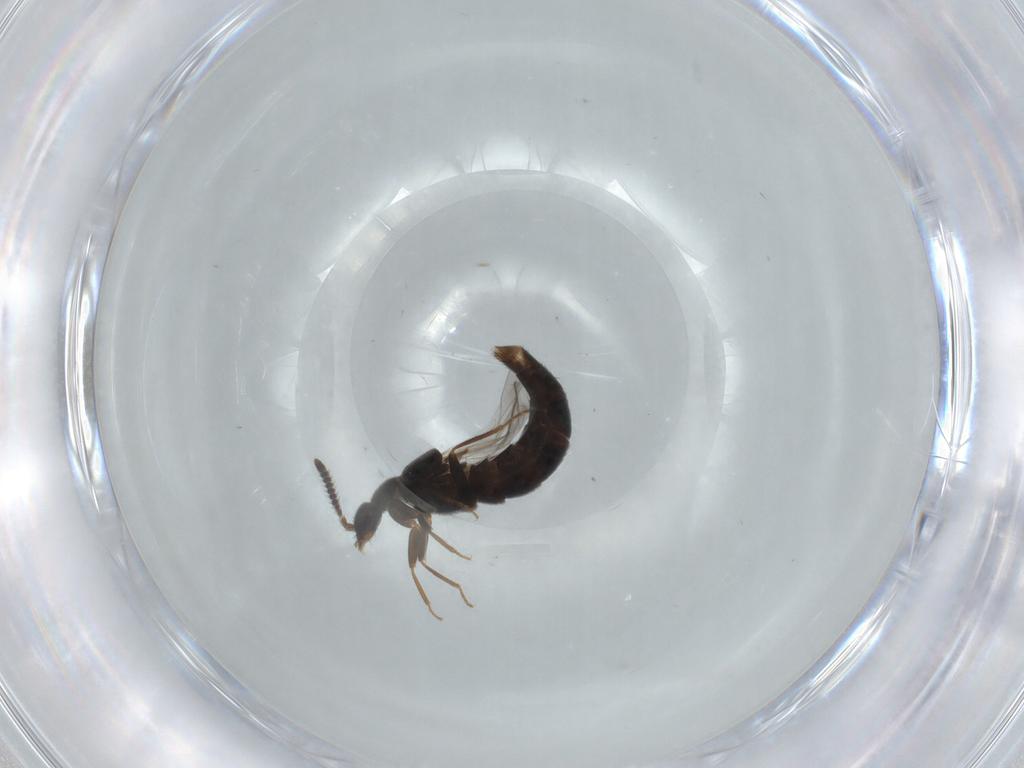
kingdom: Animalia
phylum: Arthropoda
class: Insecta
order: Coleoptera
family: Staphylinidae
